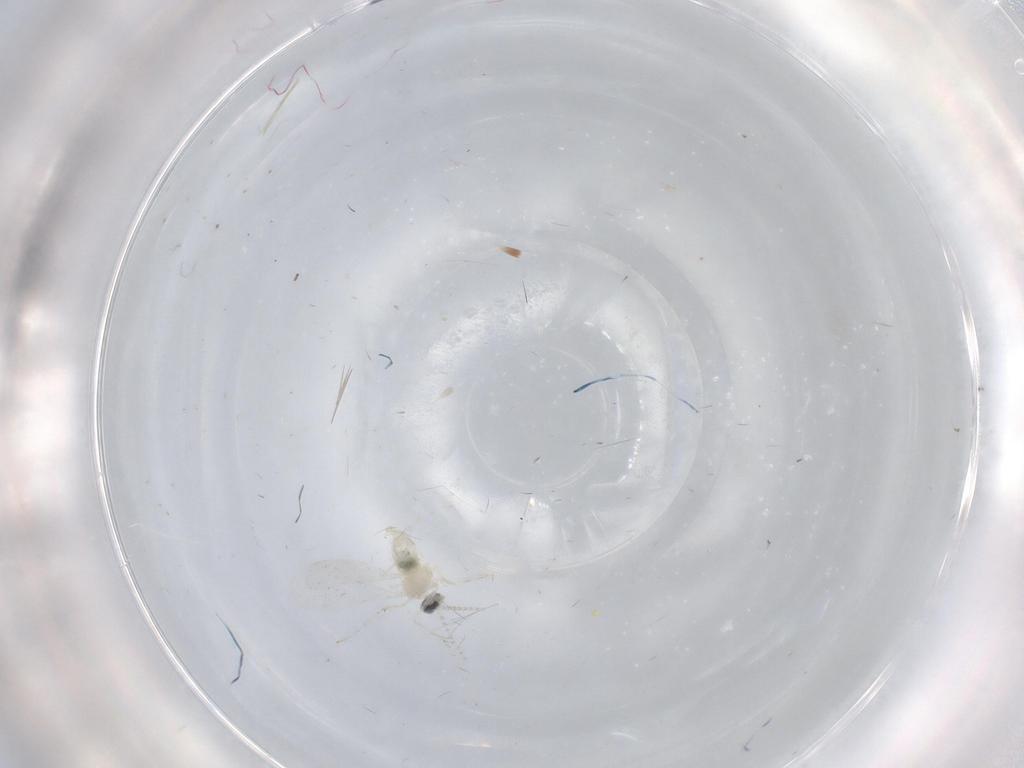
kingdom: Animalia
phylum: Arthropoda
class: Insecta
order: Diptera
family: Cecidomyiidae
